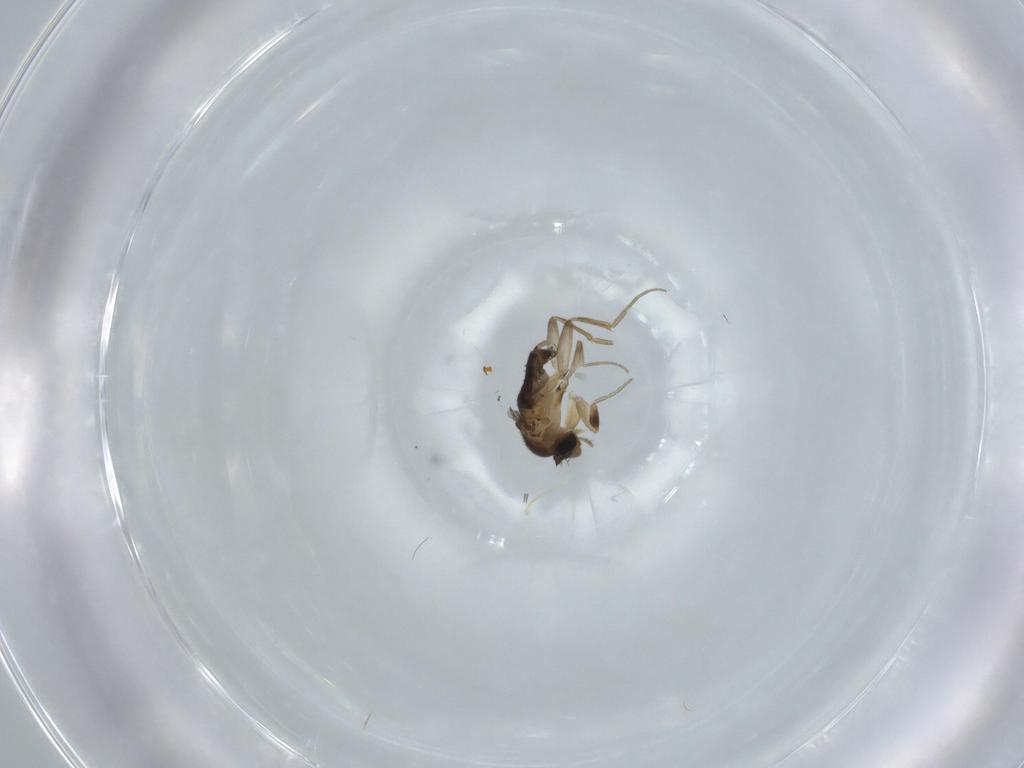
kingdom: Animalia
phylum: Arthropoda
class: Insecta
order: Diptera
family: Phoridae
